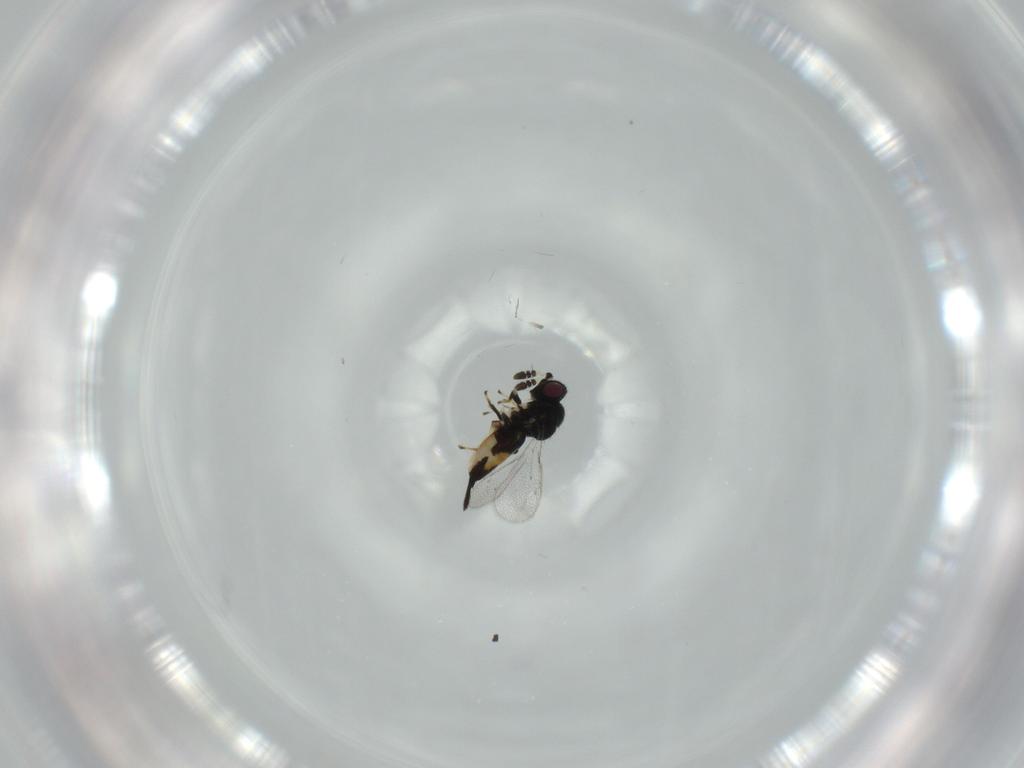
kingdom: Animalia
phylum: Arthropoda
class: Insecta
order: Hymenoptera
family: Pirenidae
